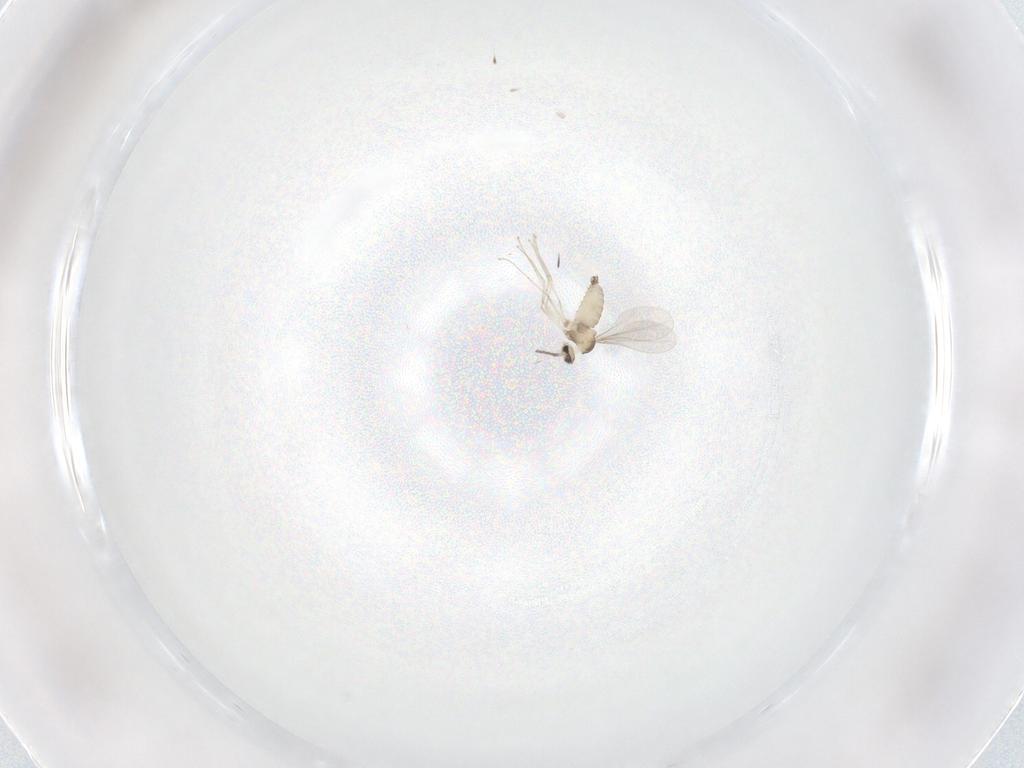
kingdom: Animalia
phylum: Arthropoda
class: Insecta
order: Diptera
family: Cecidomyiidae
